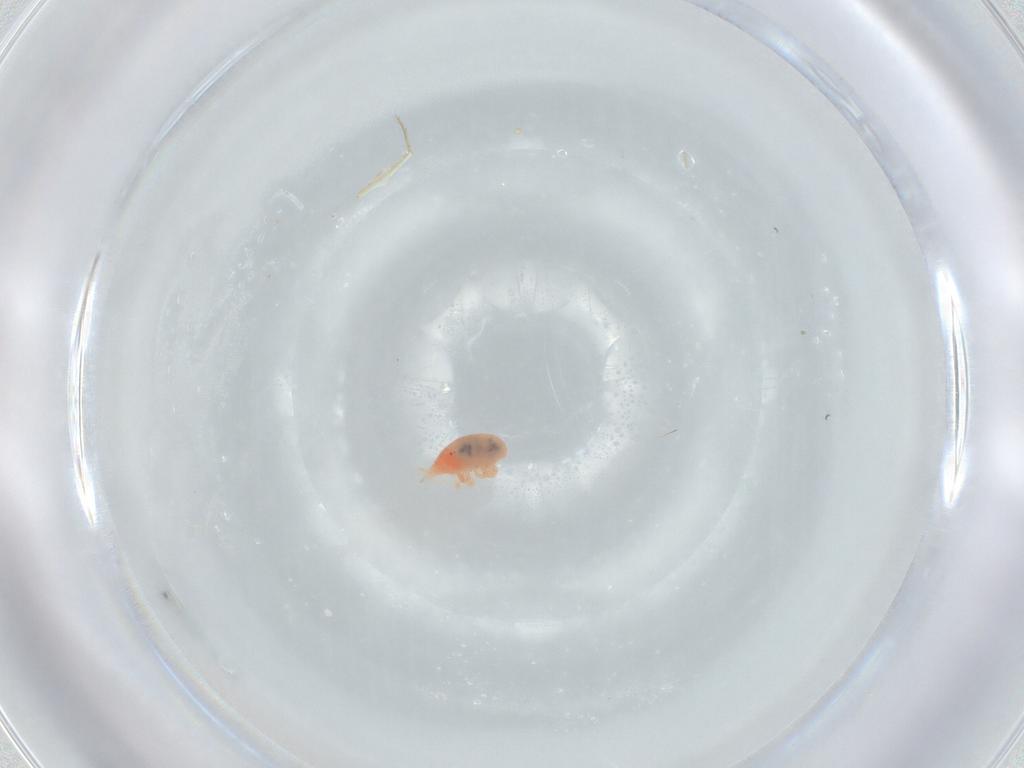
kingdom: Animalia
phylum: Arthropoda
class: Arachnida
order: Trombidiformes
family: Bdellidae
